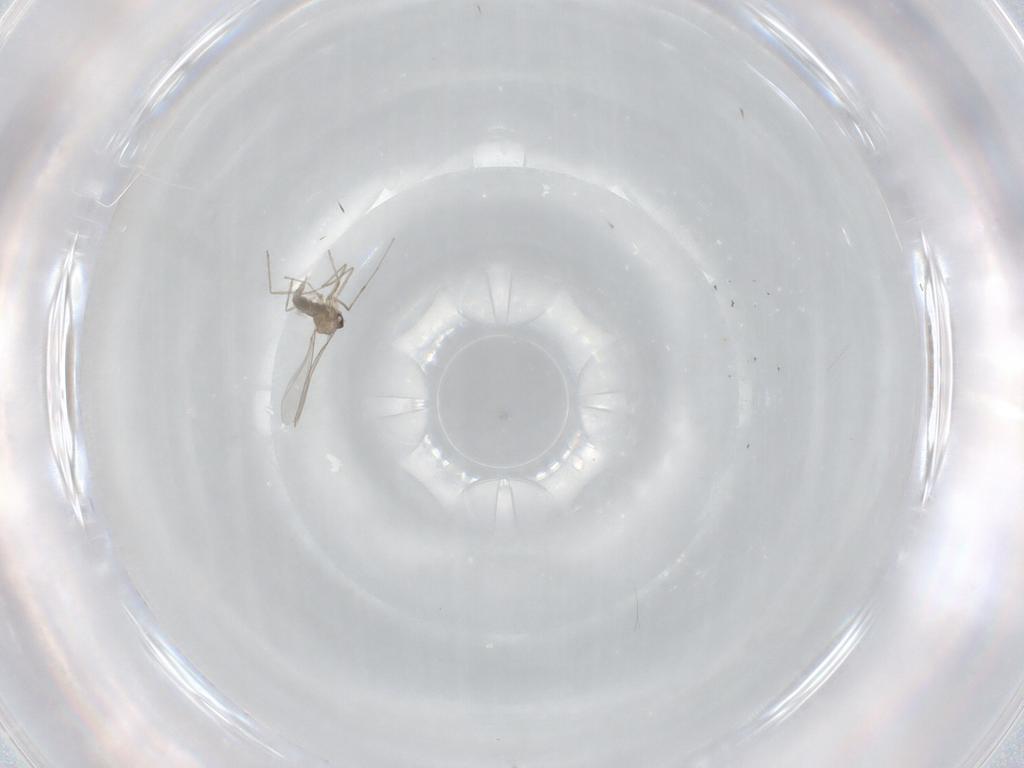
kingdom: Animalia
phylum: Arthropoda
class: Insecta
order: Diptera
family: Cecidomyiidae
